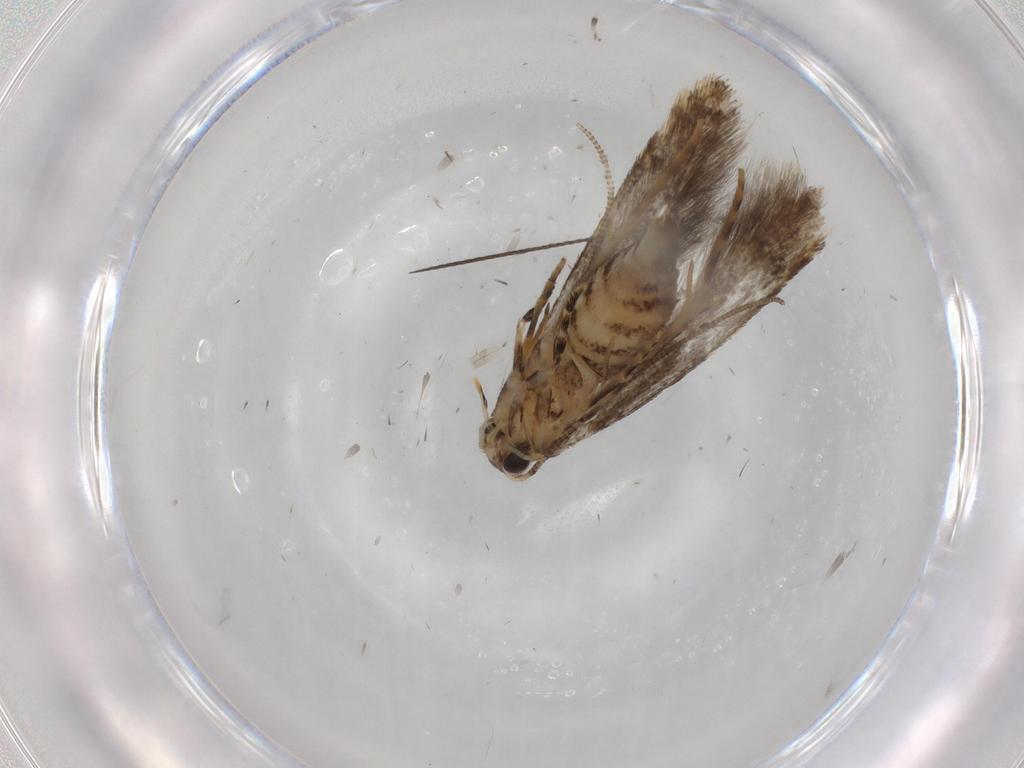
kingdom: Animalia
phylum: Arthropoda
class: Insecta
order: Lepidoptera
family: Tineidae
